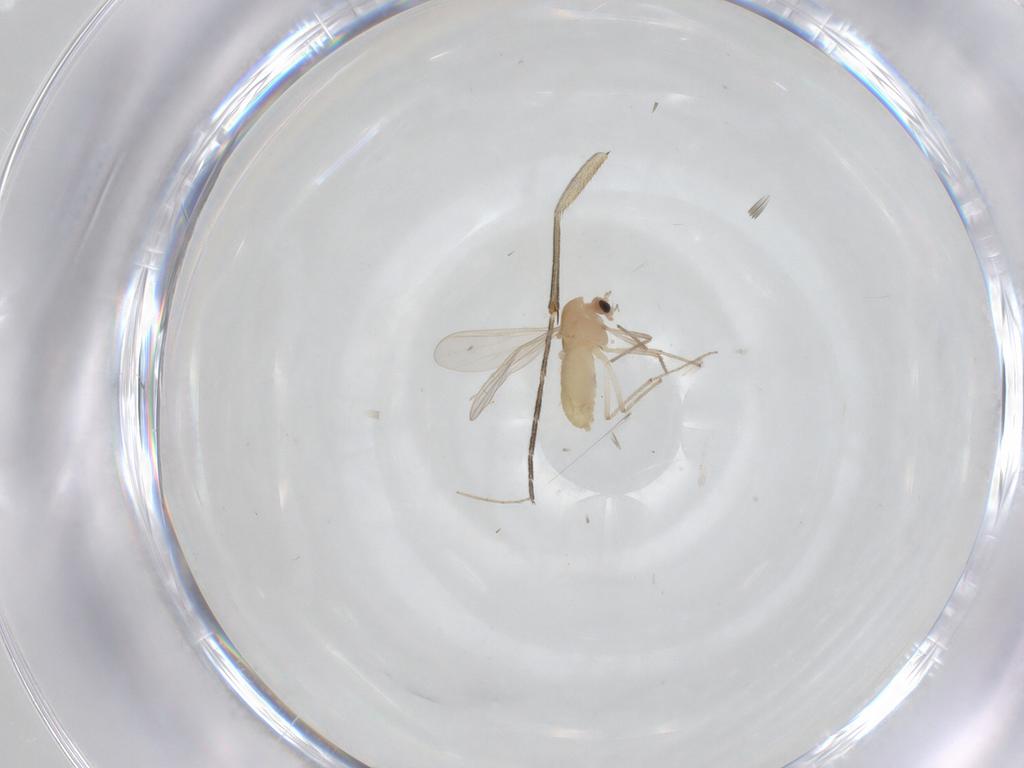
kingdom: Animalia
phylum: Arthropoda
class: Insecta
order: Diptera
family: Keroplatidae
